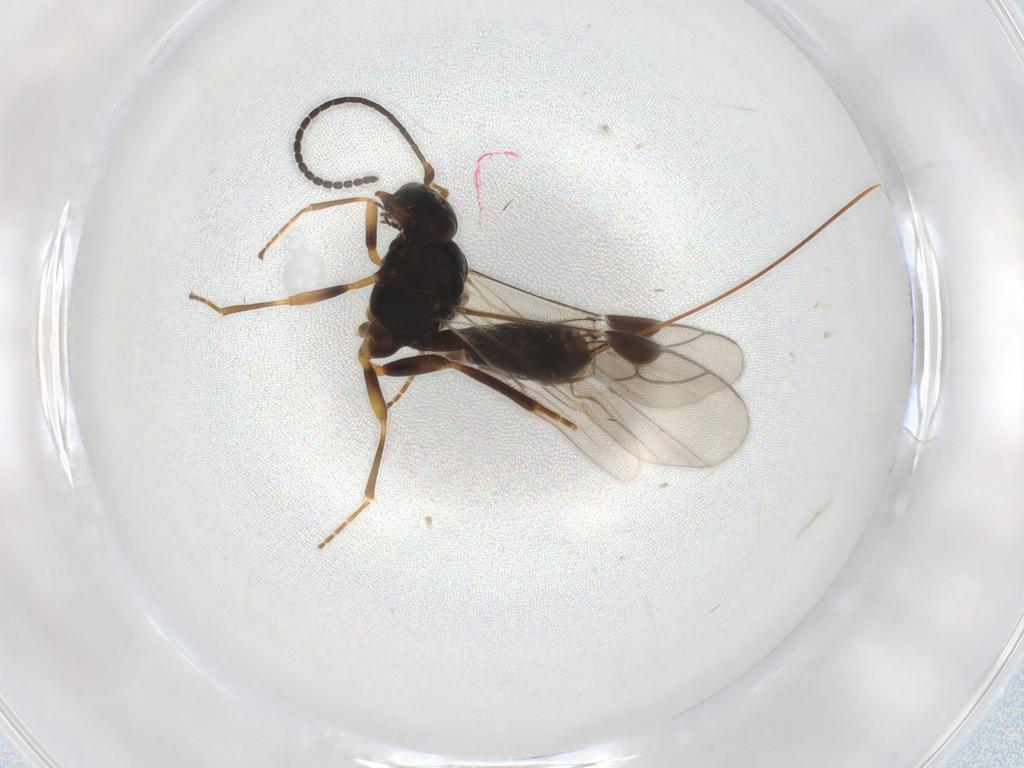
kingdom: Animalia
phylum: Arthropoda
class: Insecta
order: Hymenoptera
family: Braconidae
